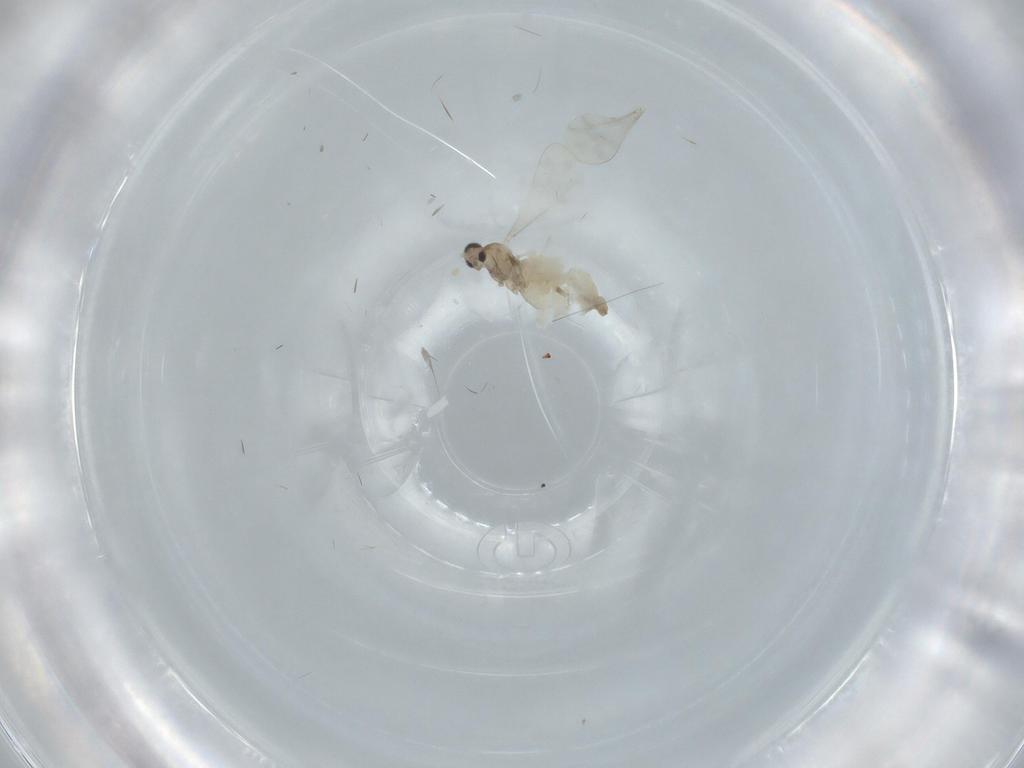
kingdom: Animalia
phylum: Arthropoda
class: Insecta
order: Diptera
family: Cecidomyiidae
